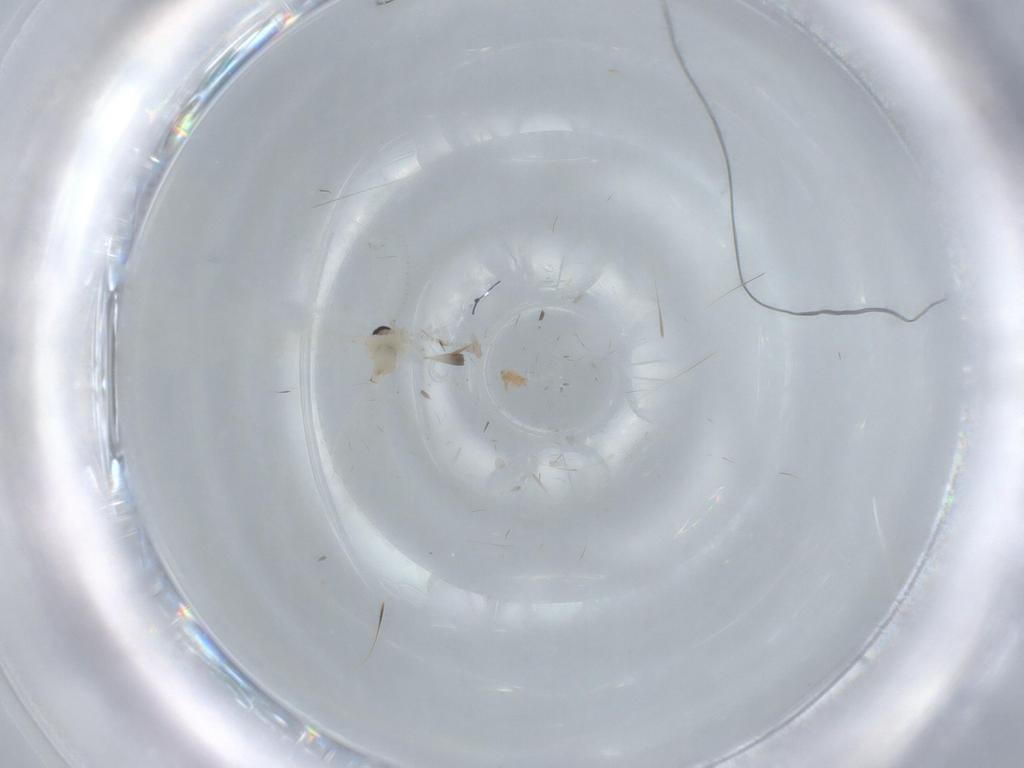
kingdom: Animalia
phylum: Arthropoda
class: Insecta
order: Diptera
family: Cecidomyiidae
